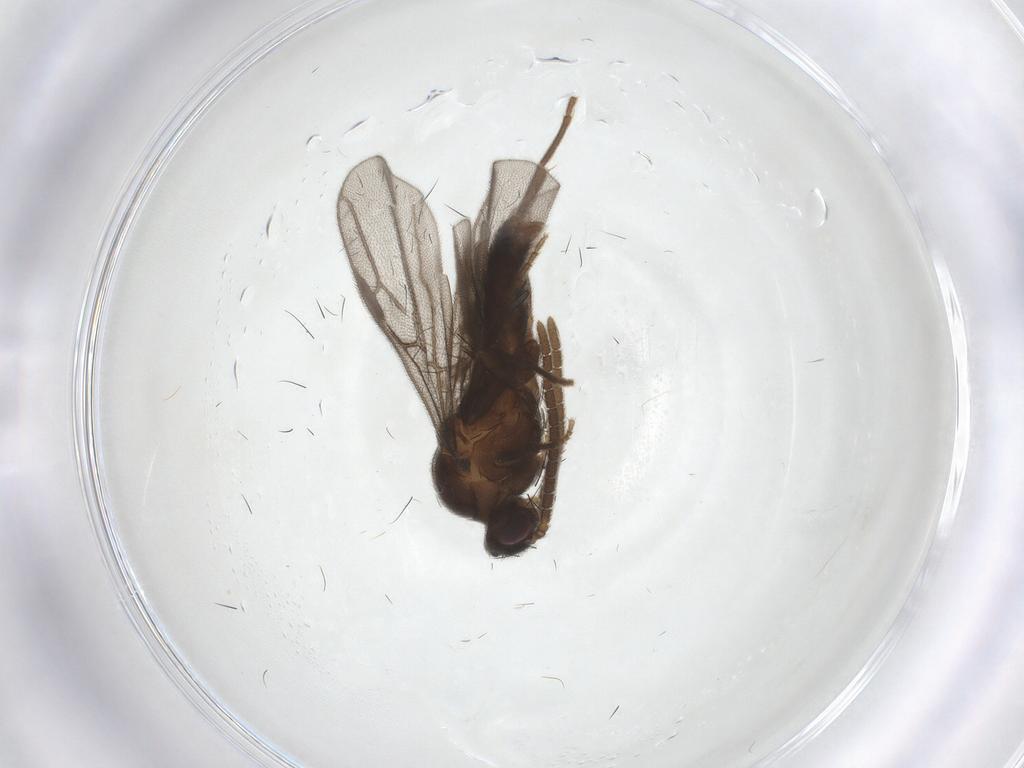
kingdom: Animalia
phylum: Arthropoda
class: Insecta
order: Hymenoptera
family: Formicidae
